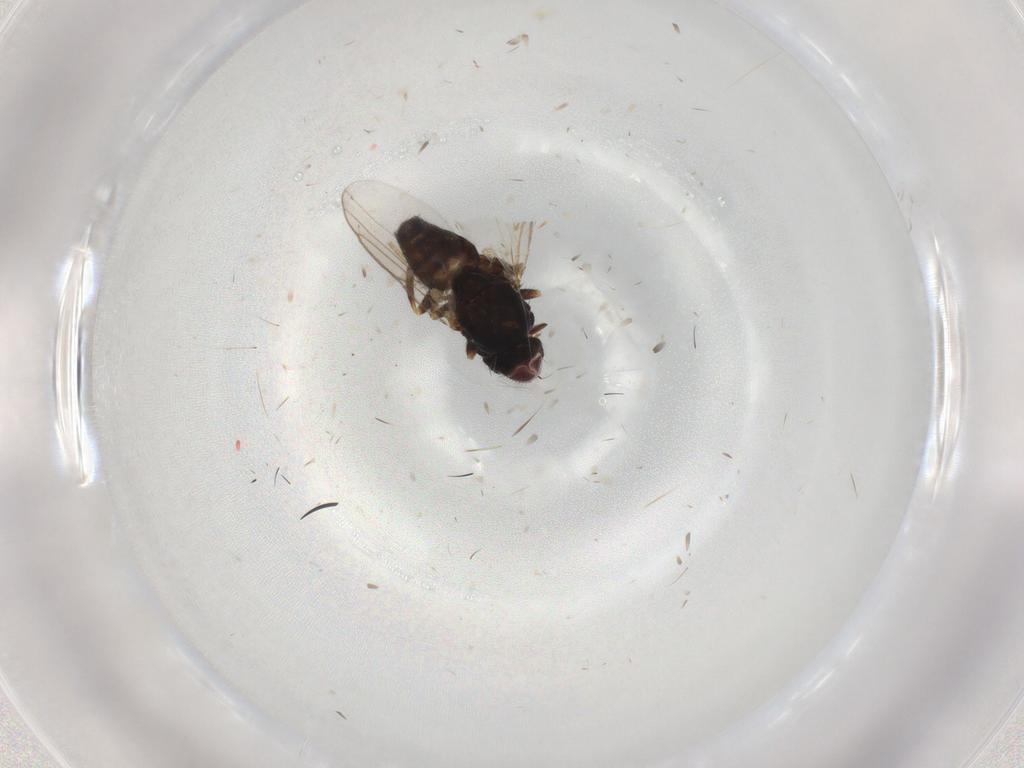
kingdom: Animalia
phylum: Arthropoda
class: Insecta
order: Diptera
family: Chloropidae
